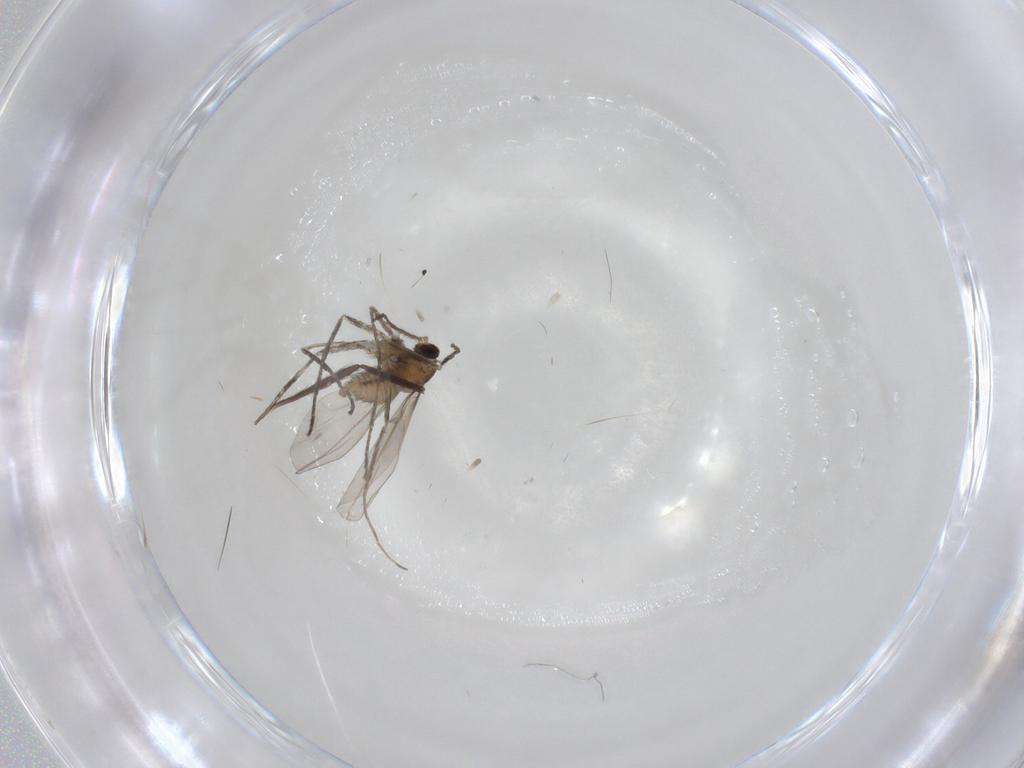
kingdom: Animalia
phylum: Arthropoda
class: Insecta
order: Diptera
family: Cecidomyiidae
